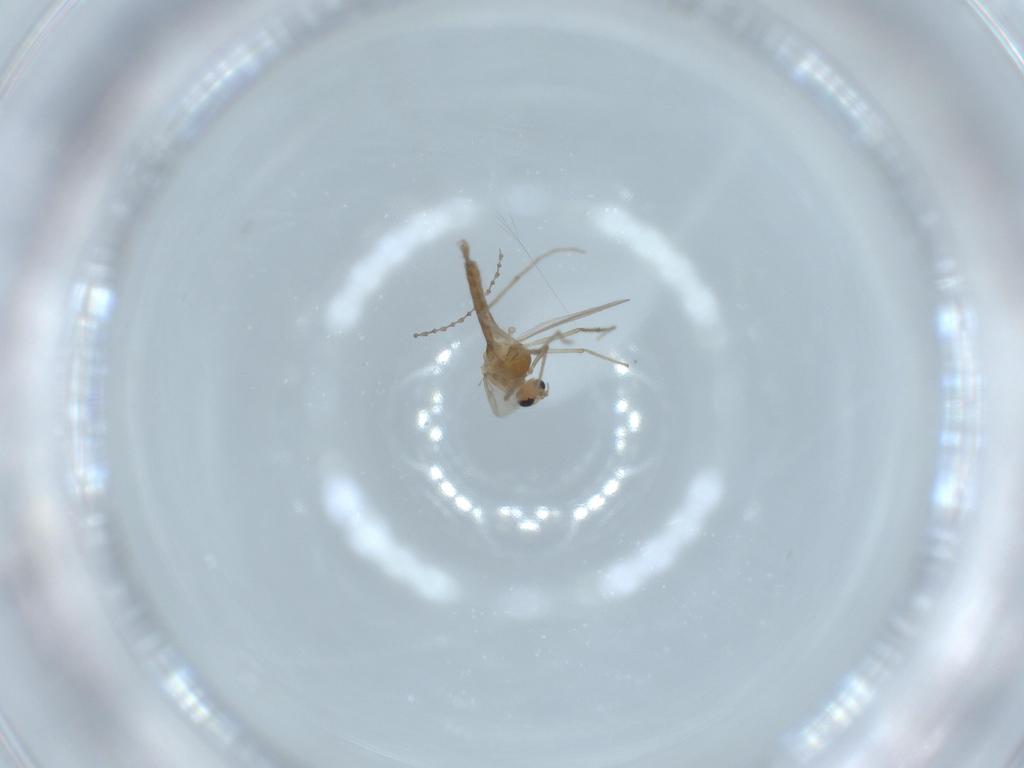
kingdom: Animalia
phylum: Arthropoda
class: Insecta
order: Diptera
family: Chironomidae
